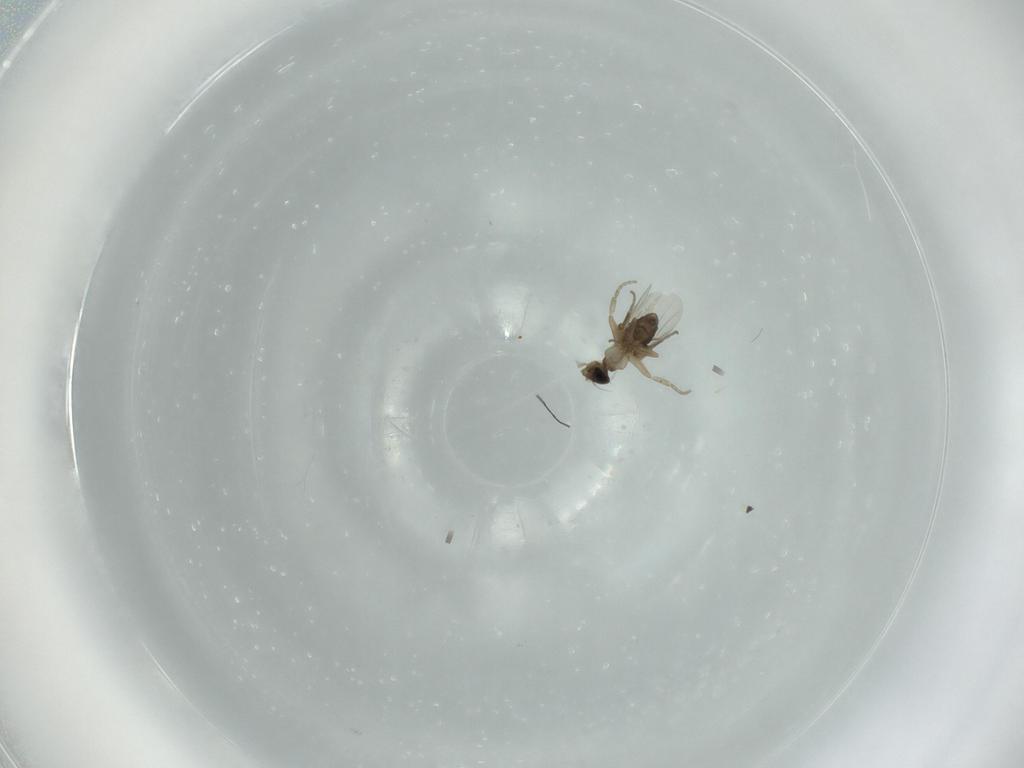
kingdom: Animalia
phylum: Arthropoda
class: Insecta
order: Diptera
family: Phoridae
